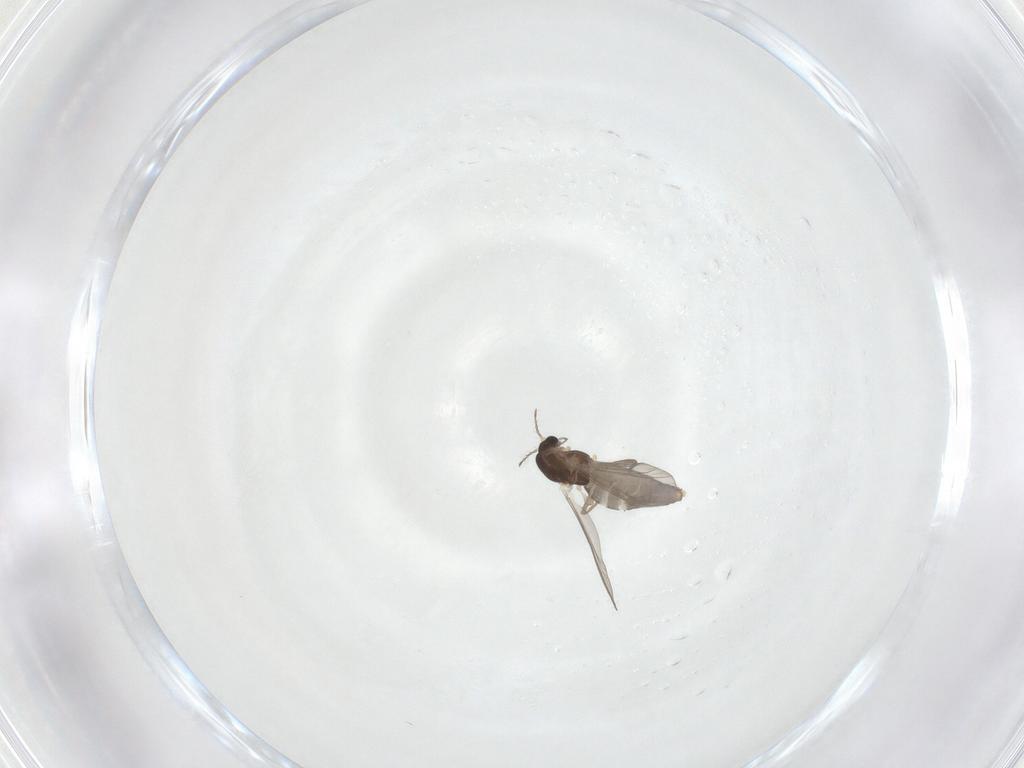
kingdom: Animalia
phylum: Arthropoda
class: Insecta
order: Diptera
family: Chironomidae
